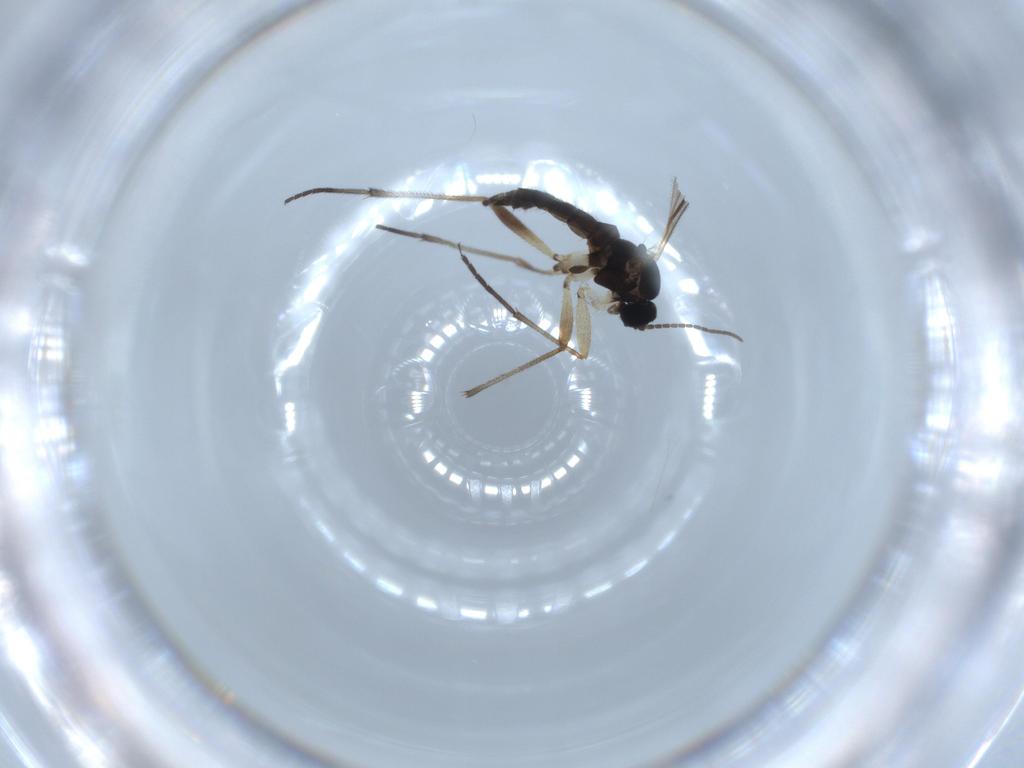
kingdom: Animalia
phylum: Arthropoda
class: Insecta
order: Diptera
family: Sciaridae
